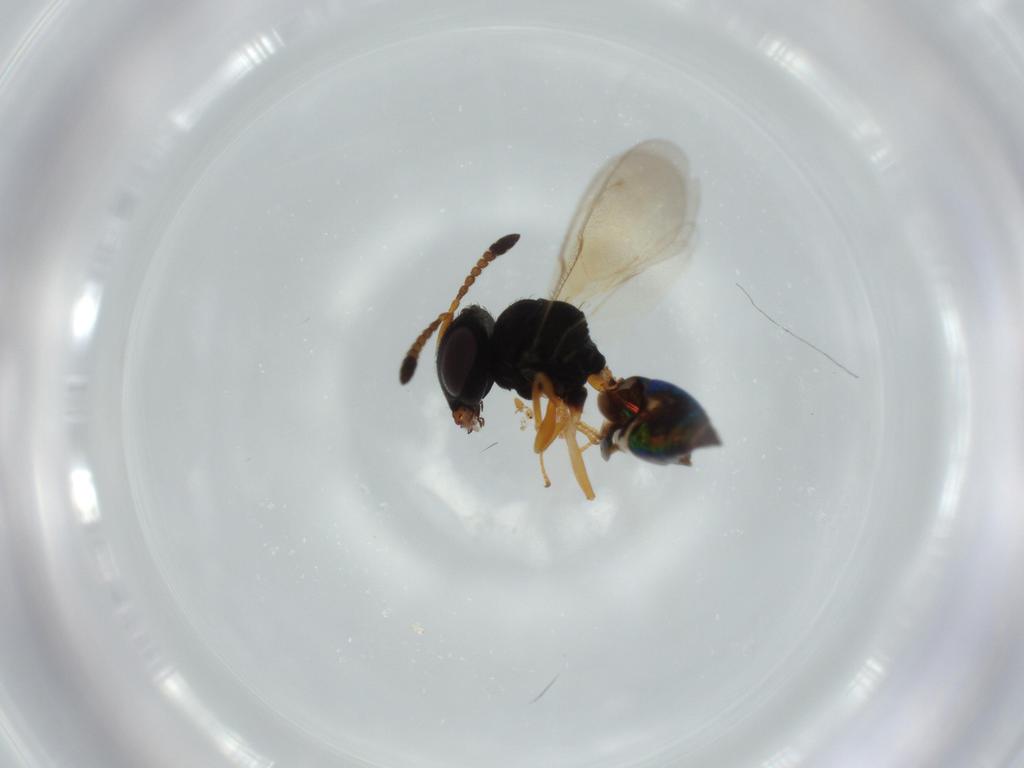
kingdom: Animalia
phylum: Arthropoda
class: Insecta
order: Hymenoptera
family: Pteromalidae
